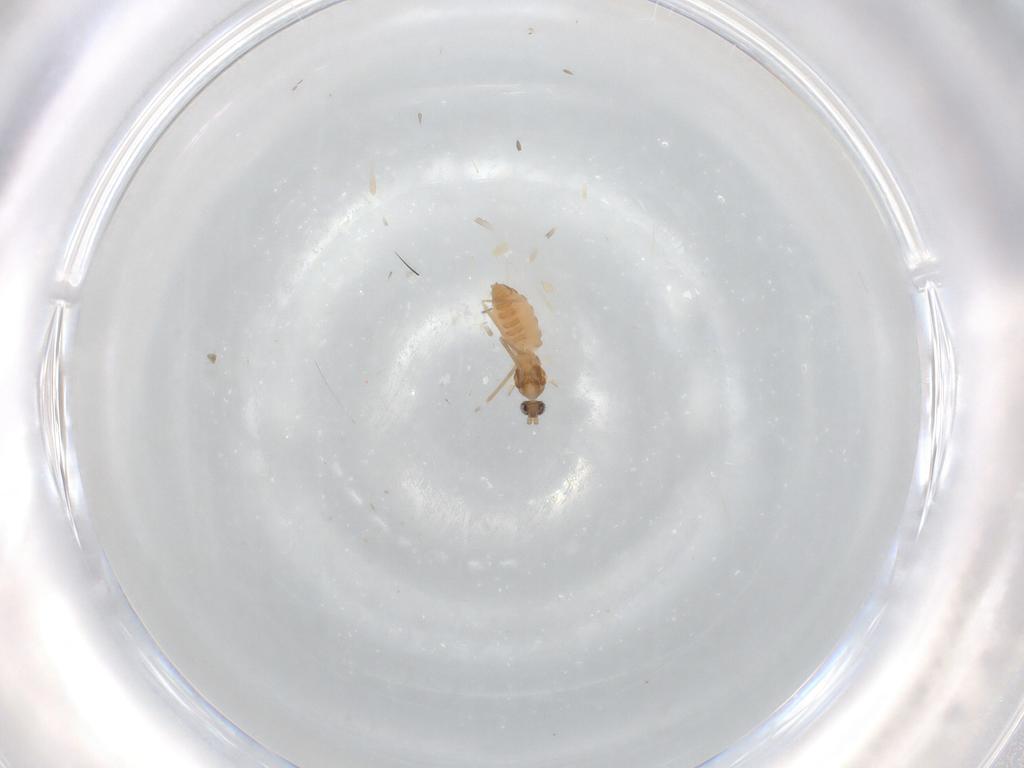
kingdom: Animalia
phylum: Arthropoda
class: Insecta
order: Diptera
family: Cecidomyiidae
